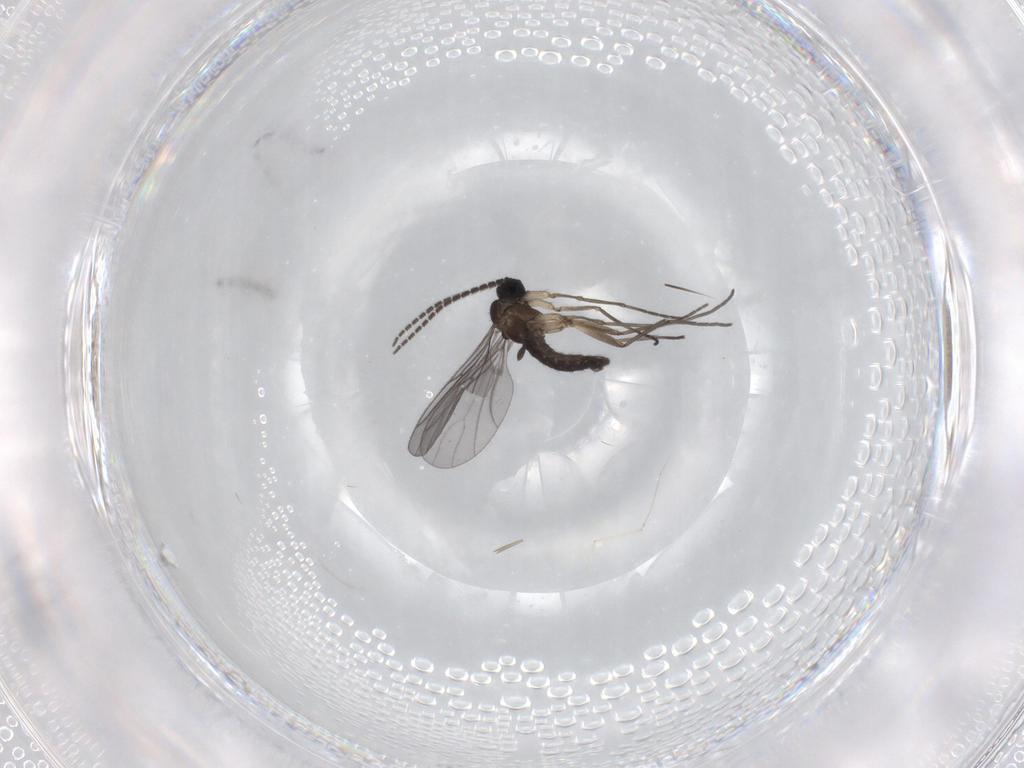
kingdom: Animalia
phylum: Arthropoda
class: Insecta
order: Diptera
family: Sciaridae
